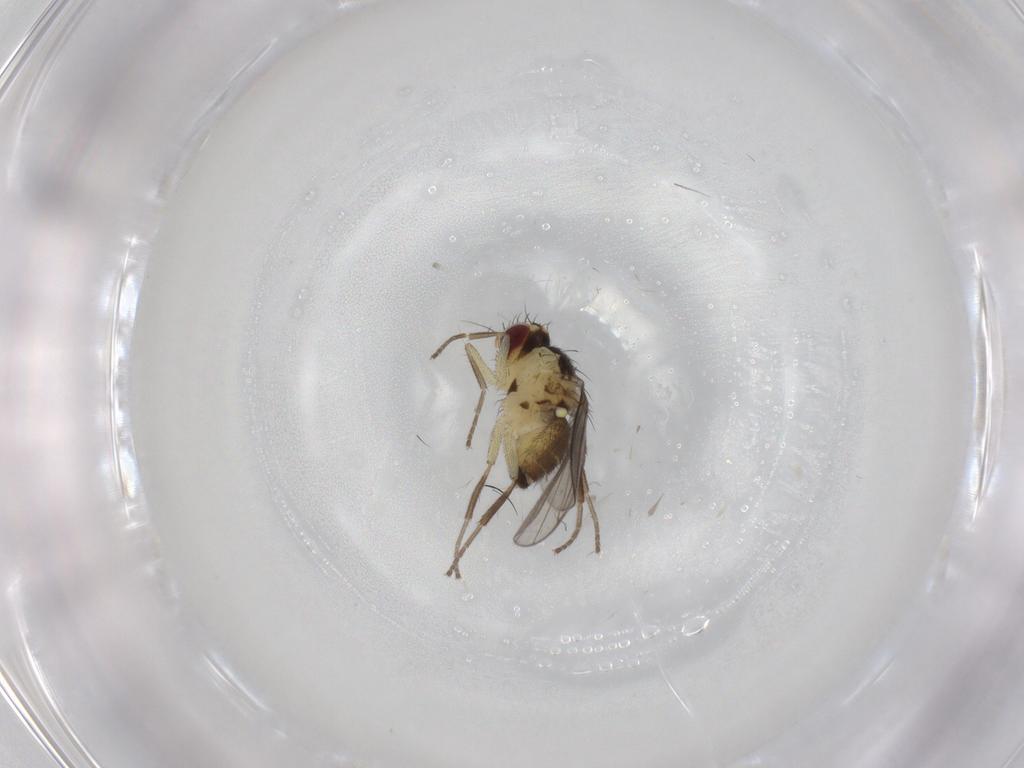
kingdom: Animalia
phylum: Arthropoda
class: Insecta
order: Diptera
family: Agromyzidae
